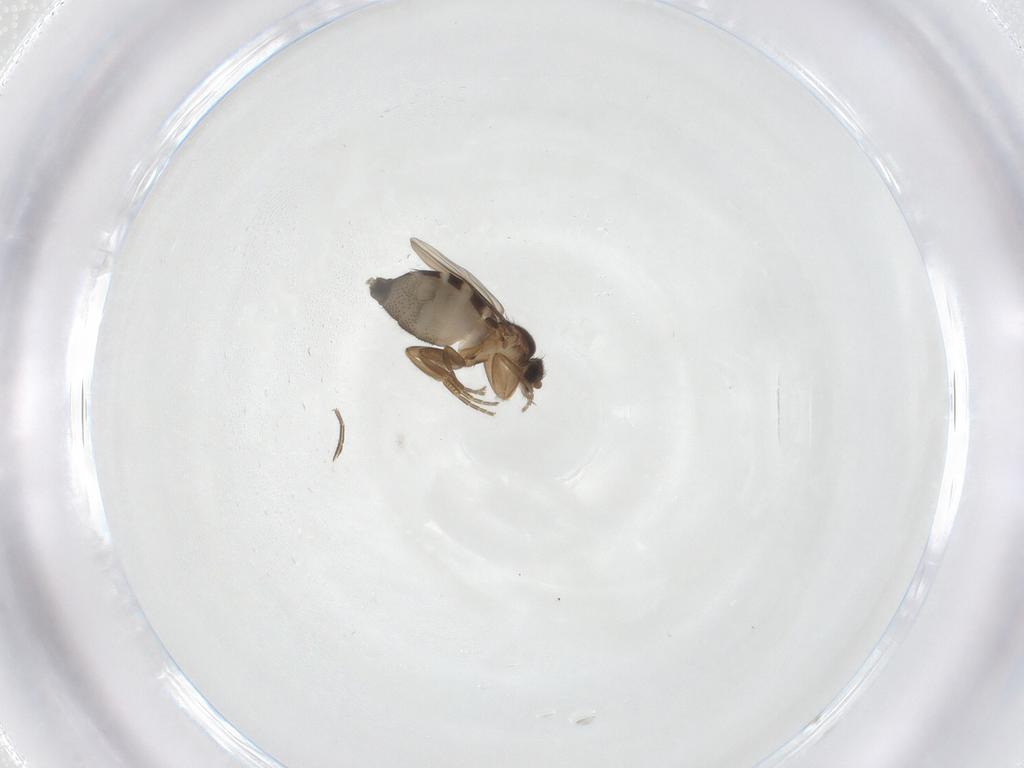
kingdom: Animalia
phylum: Arthropoda
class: Insecta
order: Diptera
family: Phoridae
